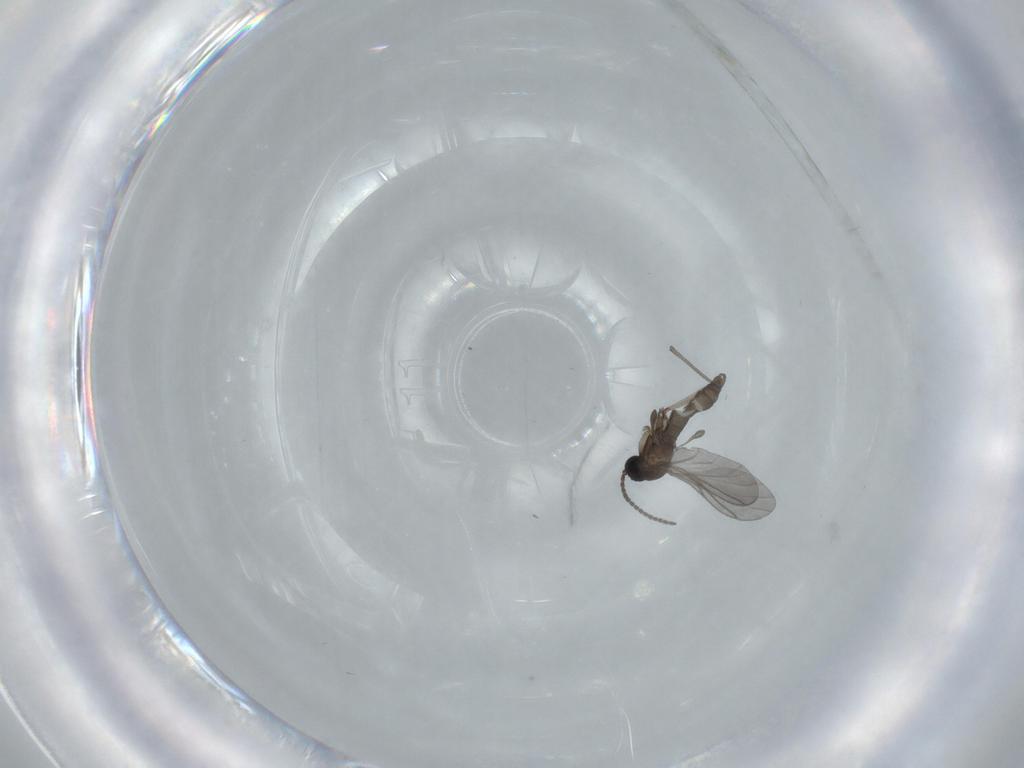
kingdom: Animalia
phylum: Arthropoda
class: Insecta
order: Diptera
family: Sciaridae
